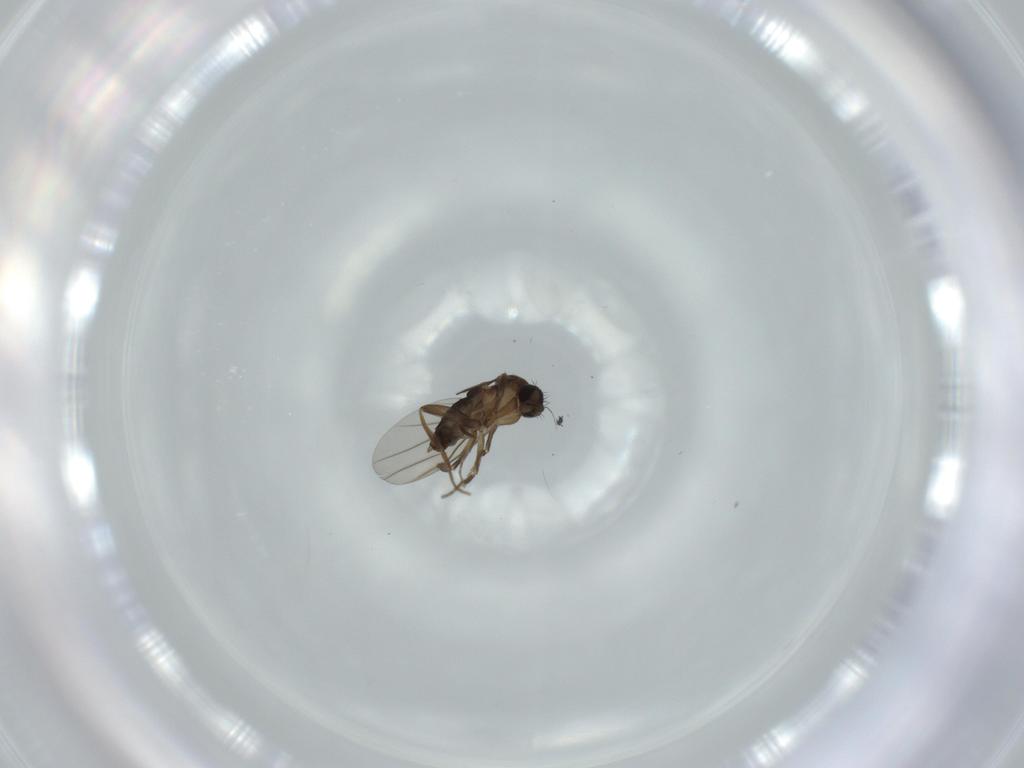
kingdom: Animalia
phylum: Arthropoda
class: Insecta
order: Diptera
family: Phoridae
